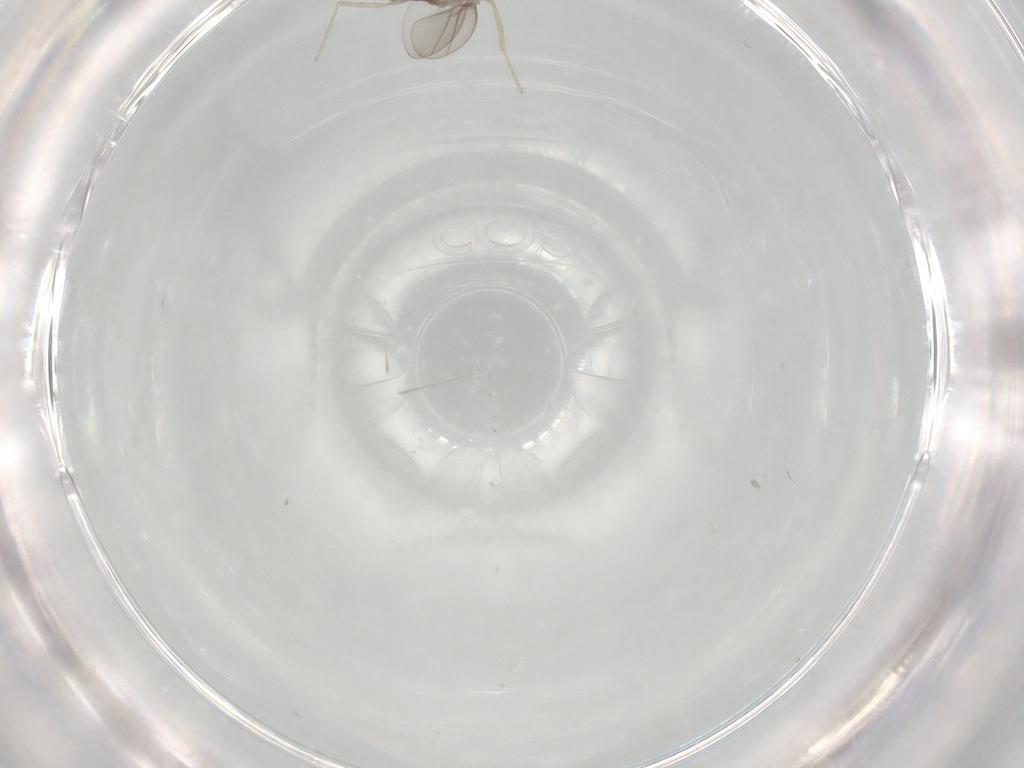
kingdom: Animalia
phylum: Arthropoda
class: Insecta
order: Diptera
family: Cecidomyiidae
